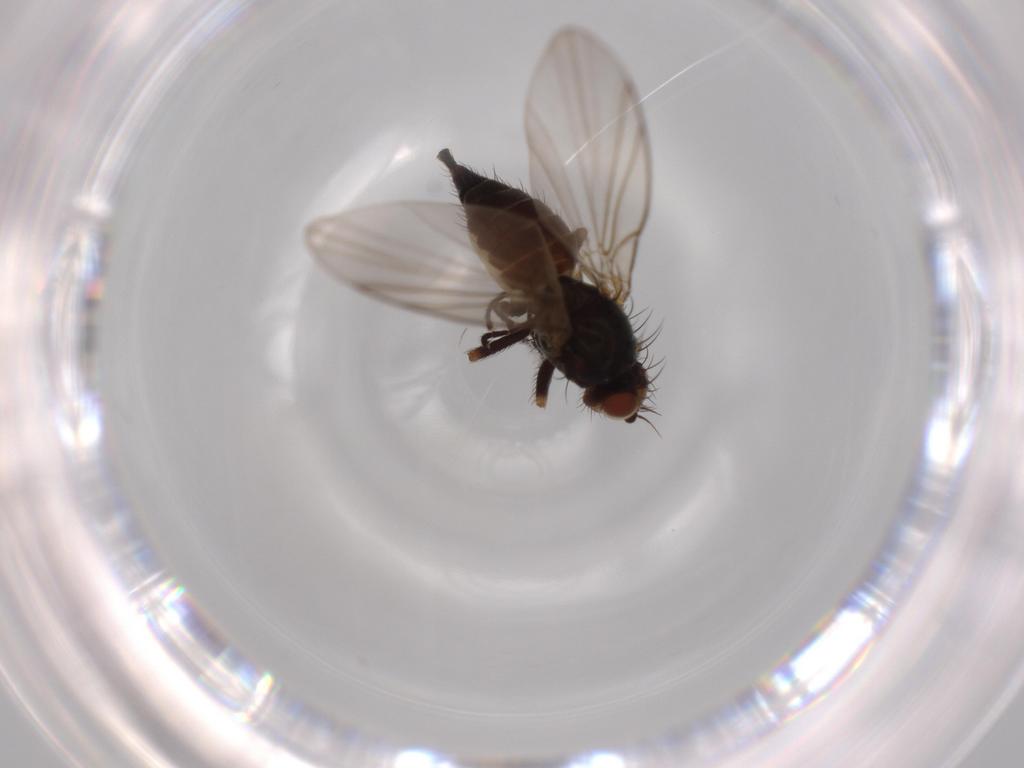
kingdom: Animalia
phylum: Arthropoda
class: Insecta
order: Diptera
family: Agromyzidae
